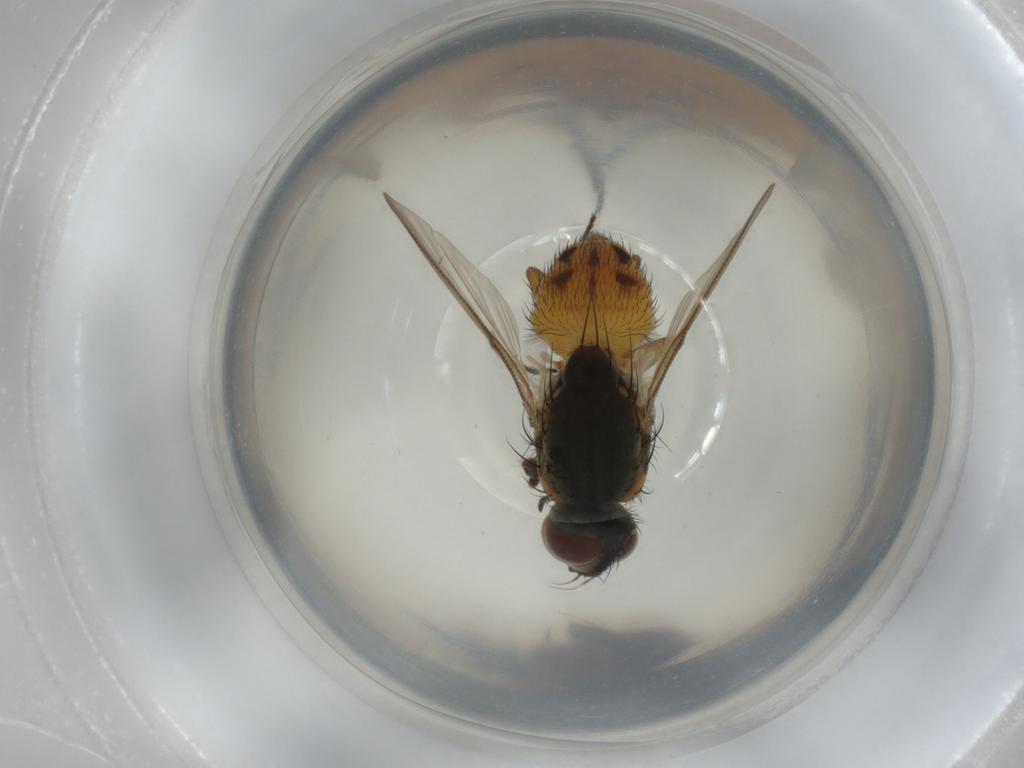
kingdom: Animalia
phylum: Arthropoda
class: Insecta
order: Diptera
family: Muscidae
